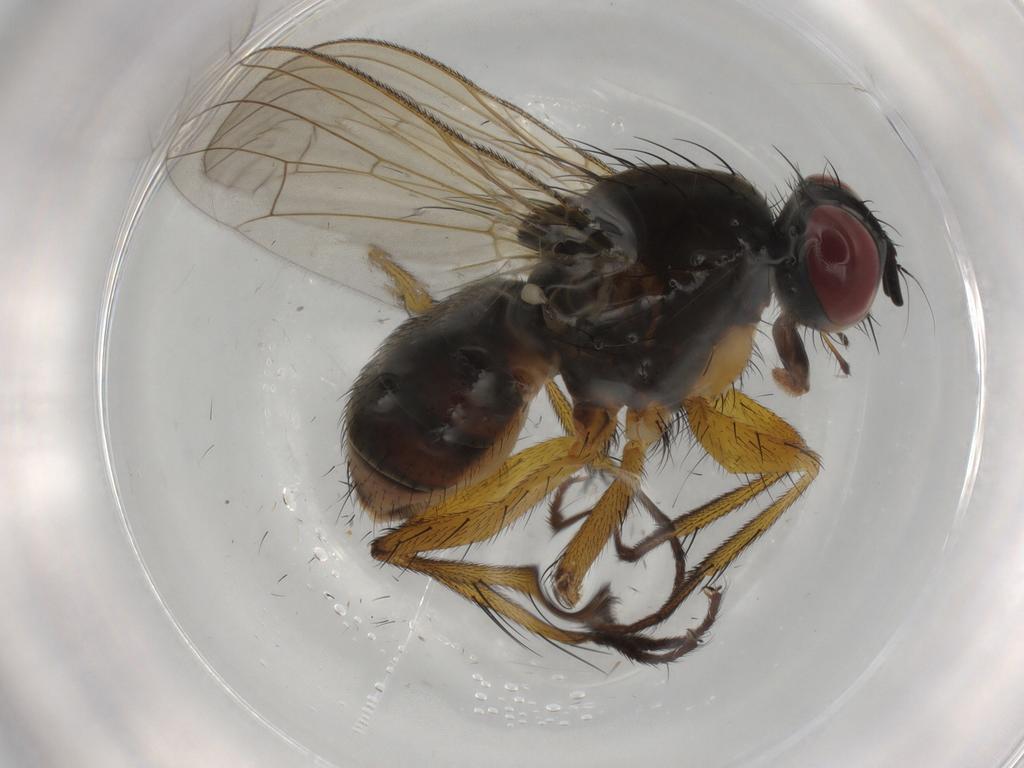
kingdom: Animalia
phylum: Arthropoda
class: Insecta
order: Diptera
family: Muscidae
